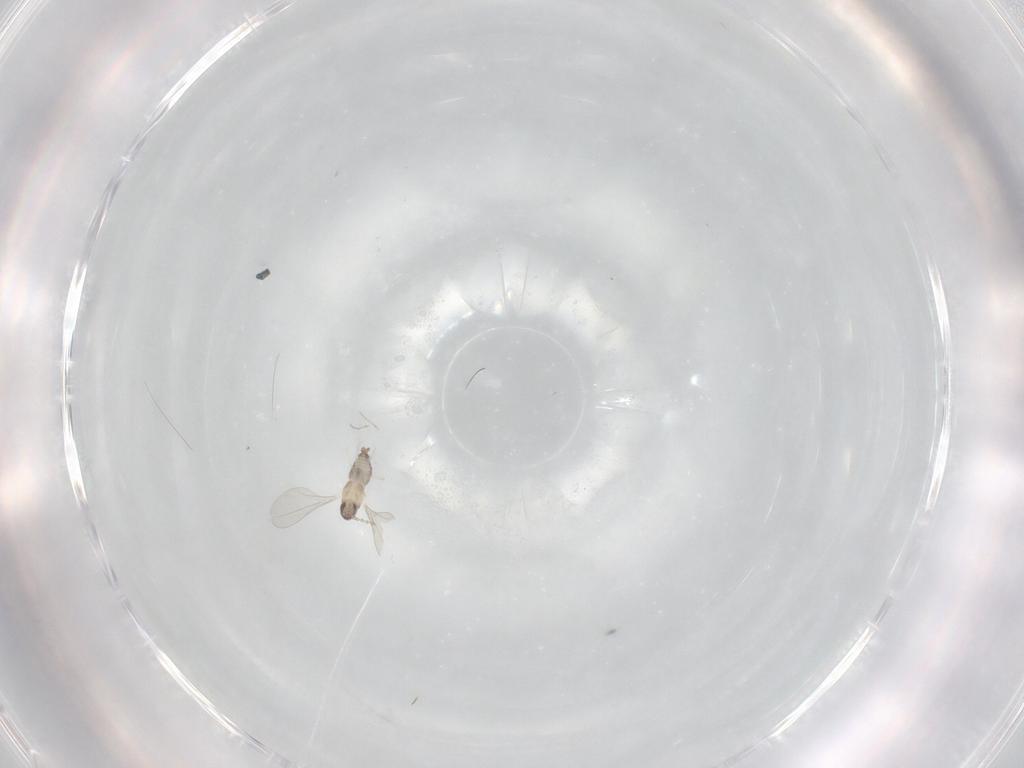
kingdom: Animalia
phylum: Arthropoda
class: Insecta
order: Diptera
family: Cecidomyiidae
